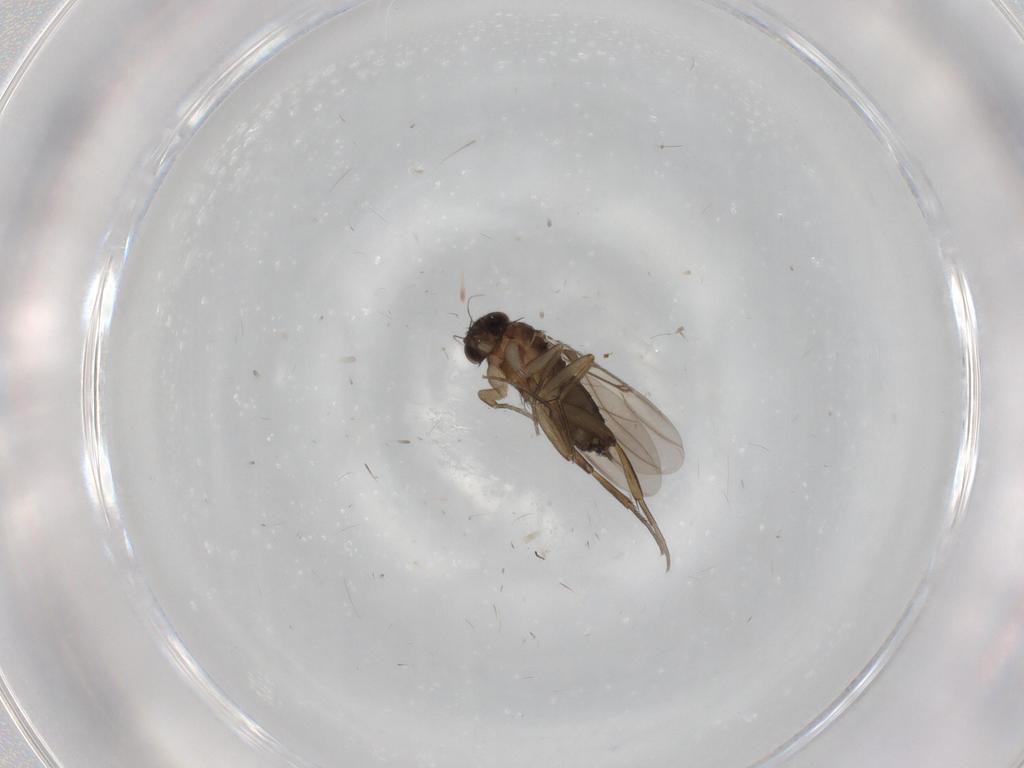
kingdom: Animalia
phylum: Arthropoda
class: Insecta
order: Diptera
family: Phoridae
